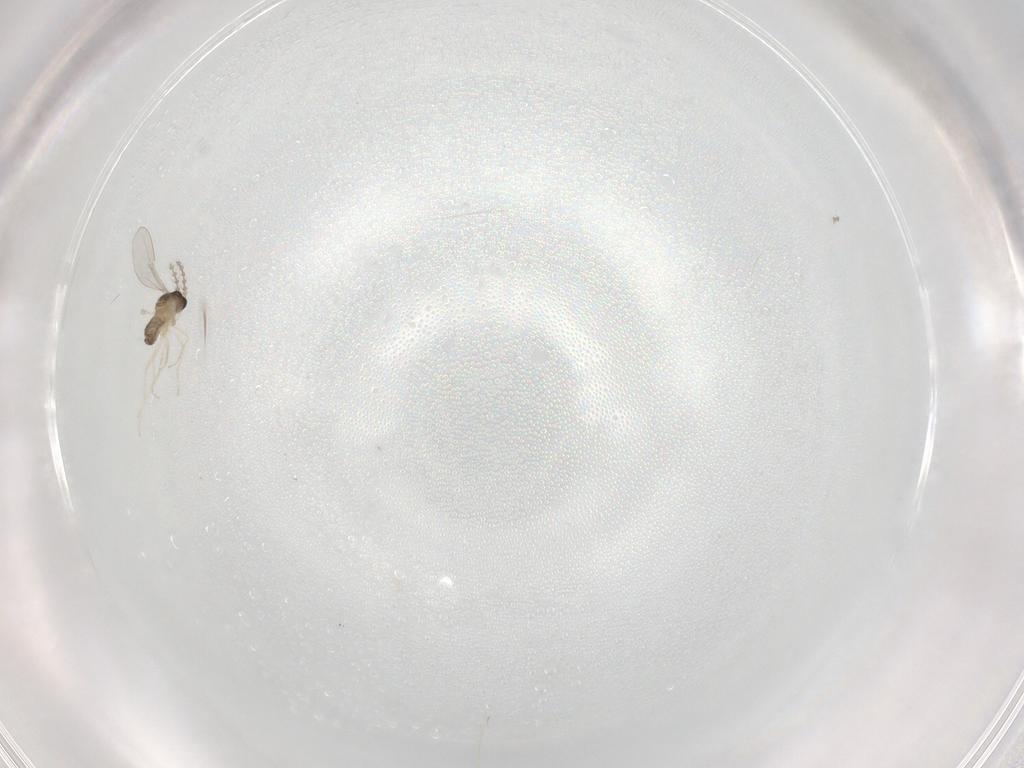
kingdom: Animalia
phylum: Arthropoda
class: Insecta
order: Diptera
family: Cecidomyiidae
